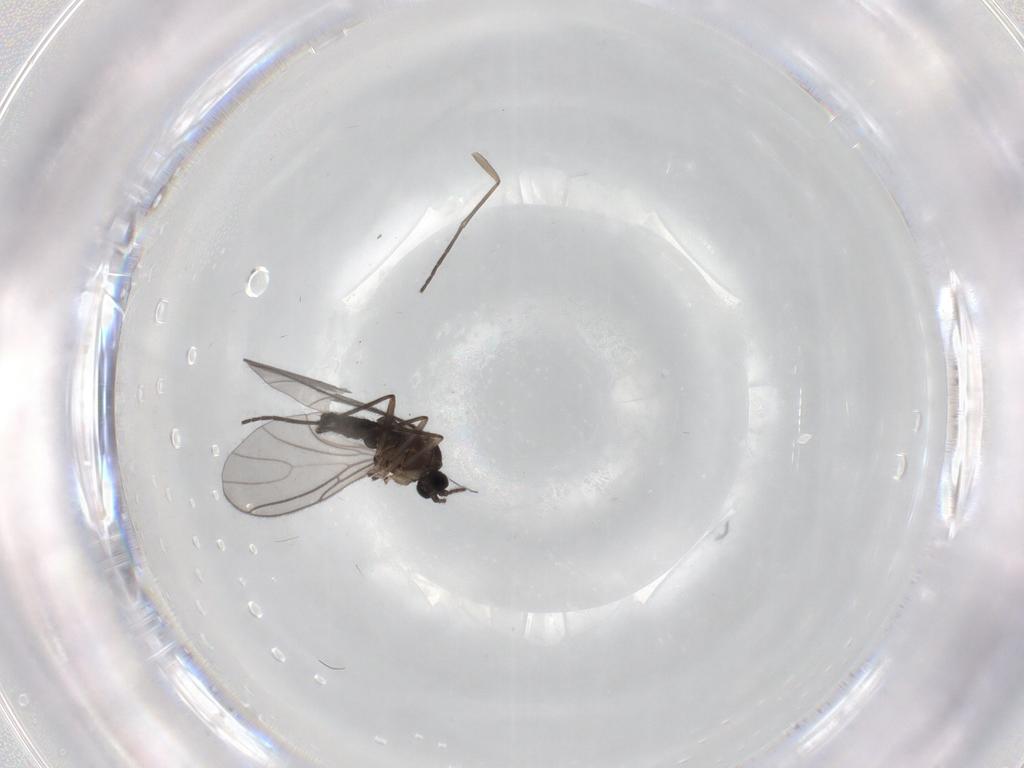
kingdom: Animalia
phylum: Arthropoda
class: Insecta
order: Diptera
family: Sciaridae
